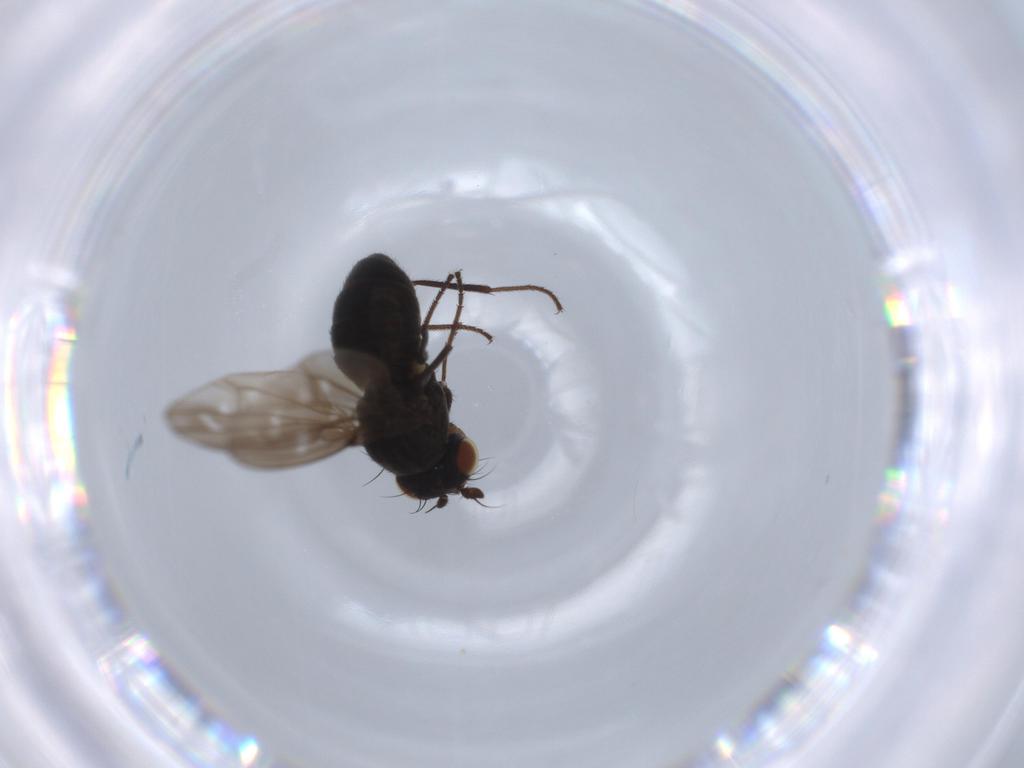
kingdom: Animalia
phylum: Arthropoda
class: Insecta
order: Diptera
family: Ephydridae
